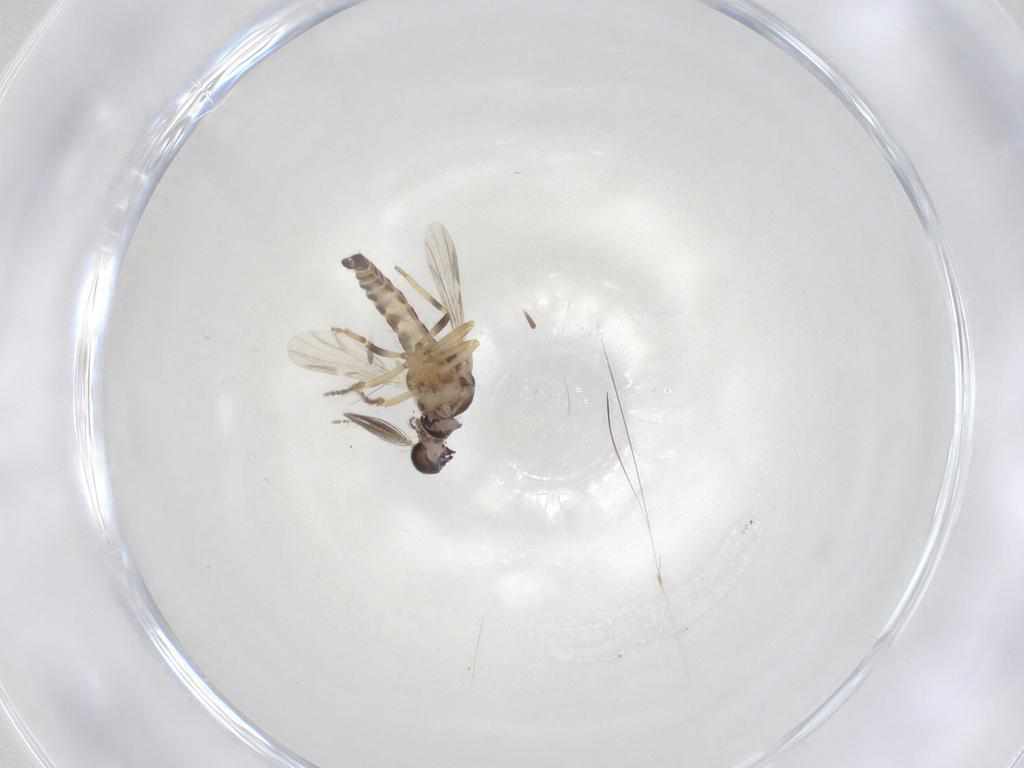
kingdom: Animalia
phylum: Arthropoda
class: Insecta
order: Diptera
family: Ceratopogonidae
